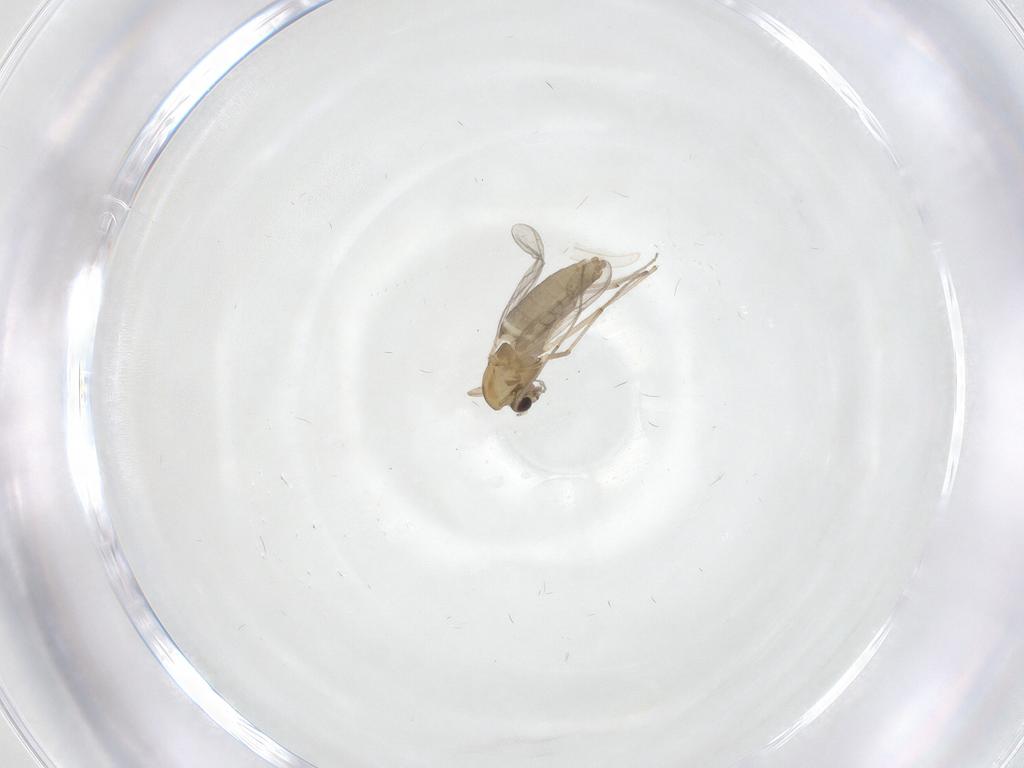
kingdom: Animalia
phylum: Arthropoda
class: Insecta
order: Diptera
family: Chironomidae
